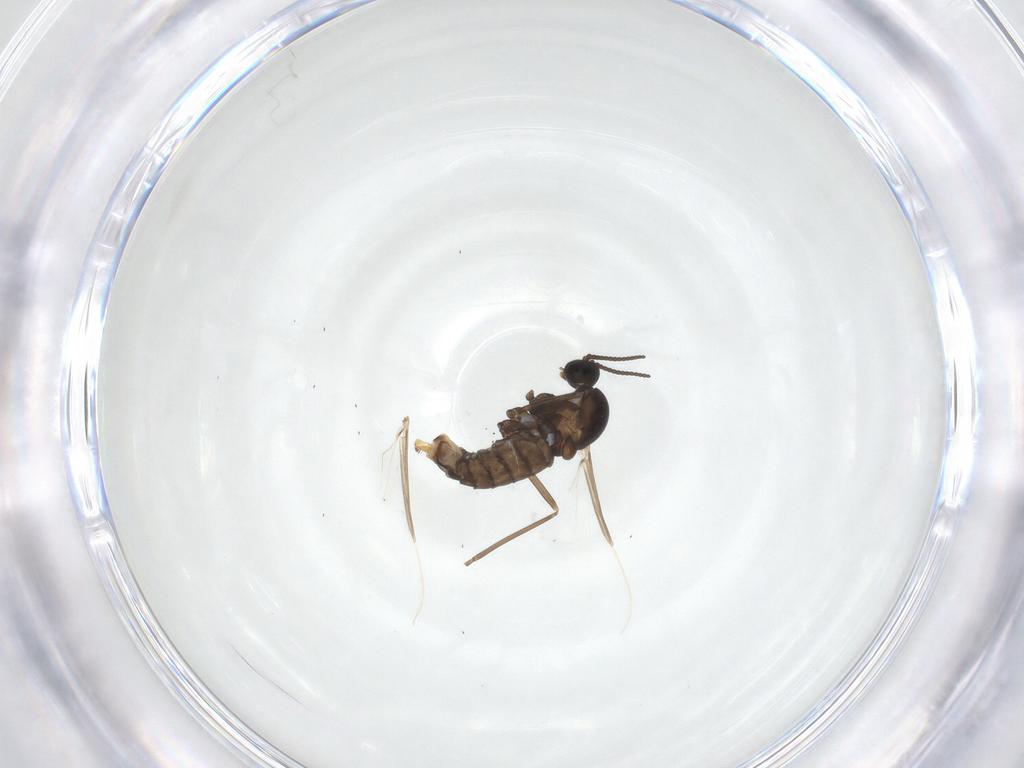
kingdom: Animalia
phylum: Arthropoda
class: Insecta
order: Diptera
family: Cecidomyiidae
